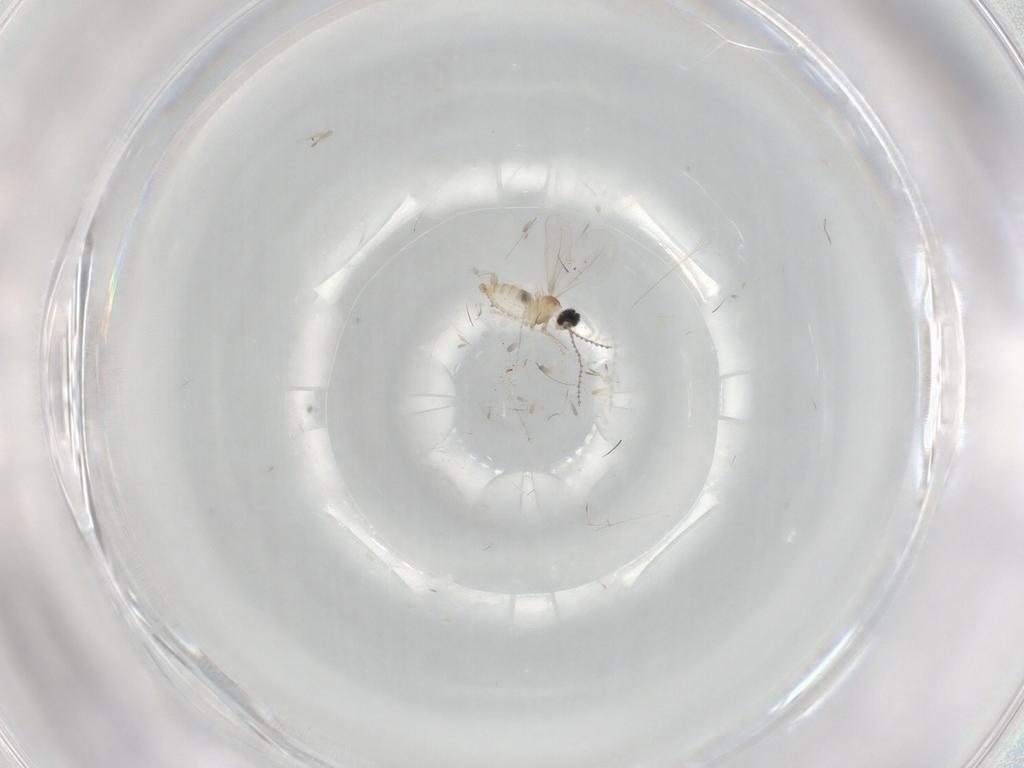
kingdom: Animalia
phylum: Arthropoda
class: Insecta
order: Diptera
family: Cecidomyiidae
